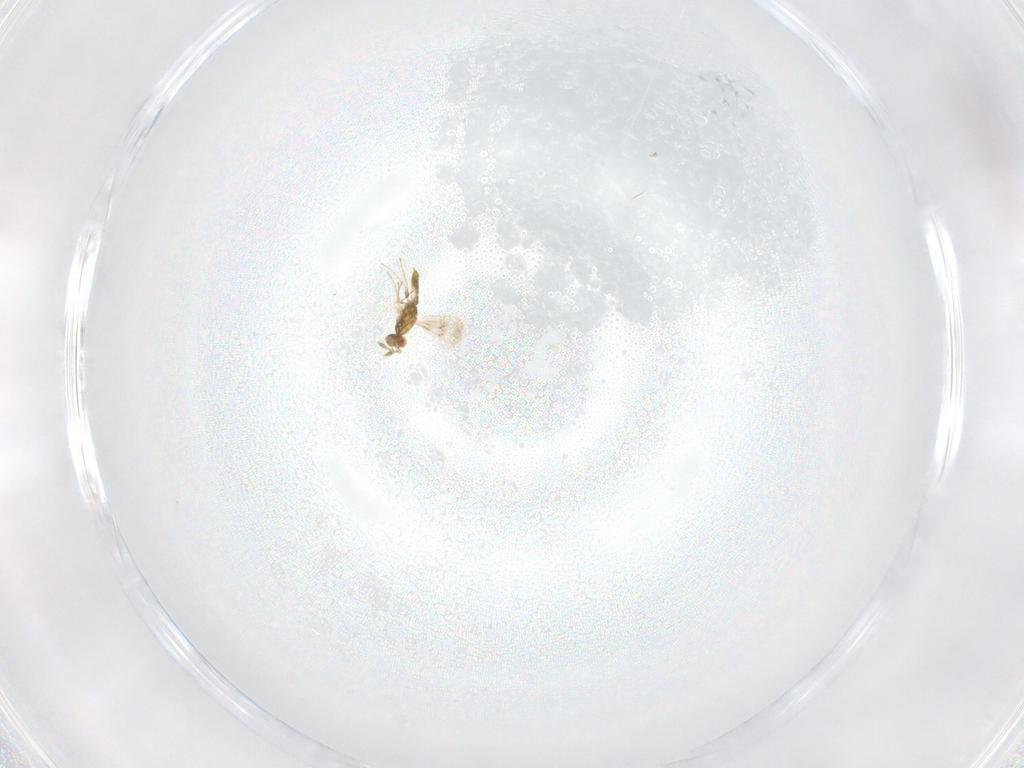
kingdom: Animalia
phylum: Arthropoda
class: Insecta
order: Hymenoptera
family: Eulophidae
